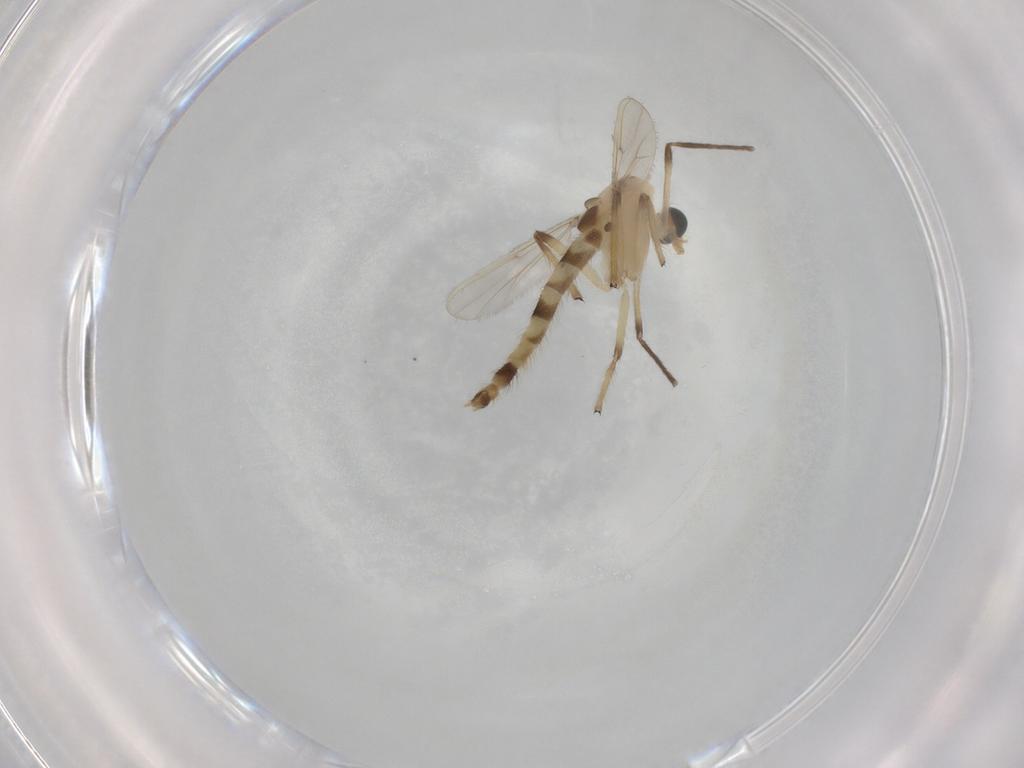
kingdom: Animalia
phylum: Arthropoda
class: Insecta
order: Diptera
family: Chironomidae
